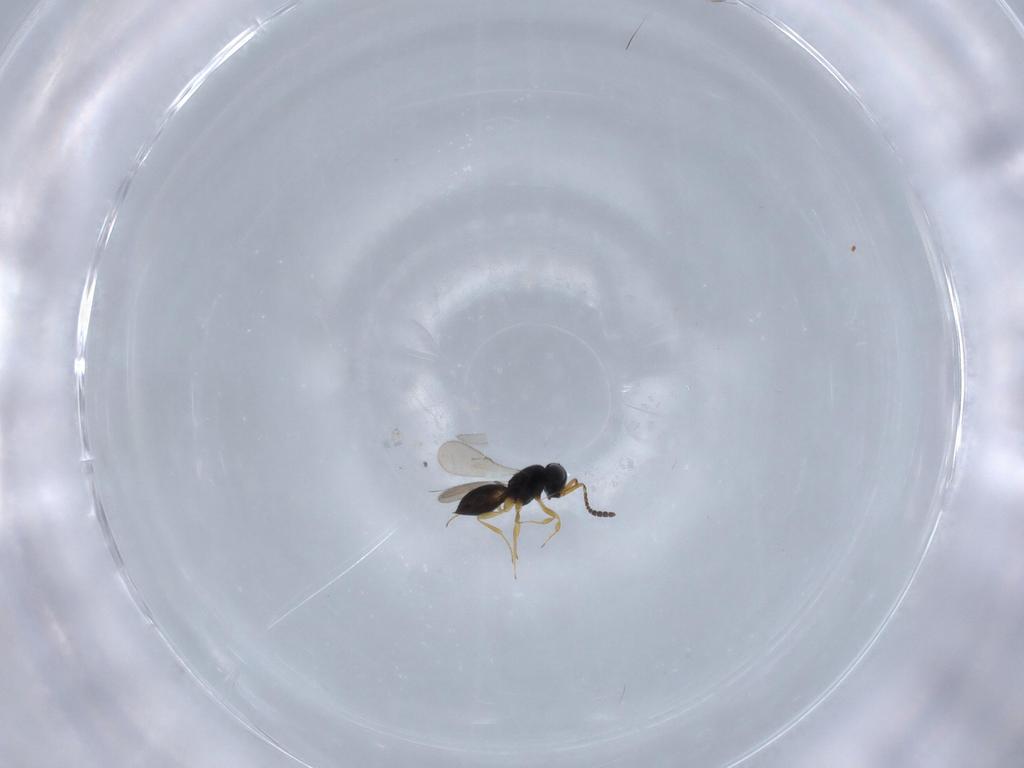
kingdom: Animalia
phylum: Arthropoda
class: Insecta
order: Hymenoptera
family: Scelionidae
